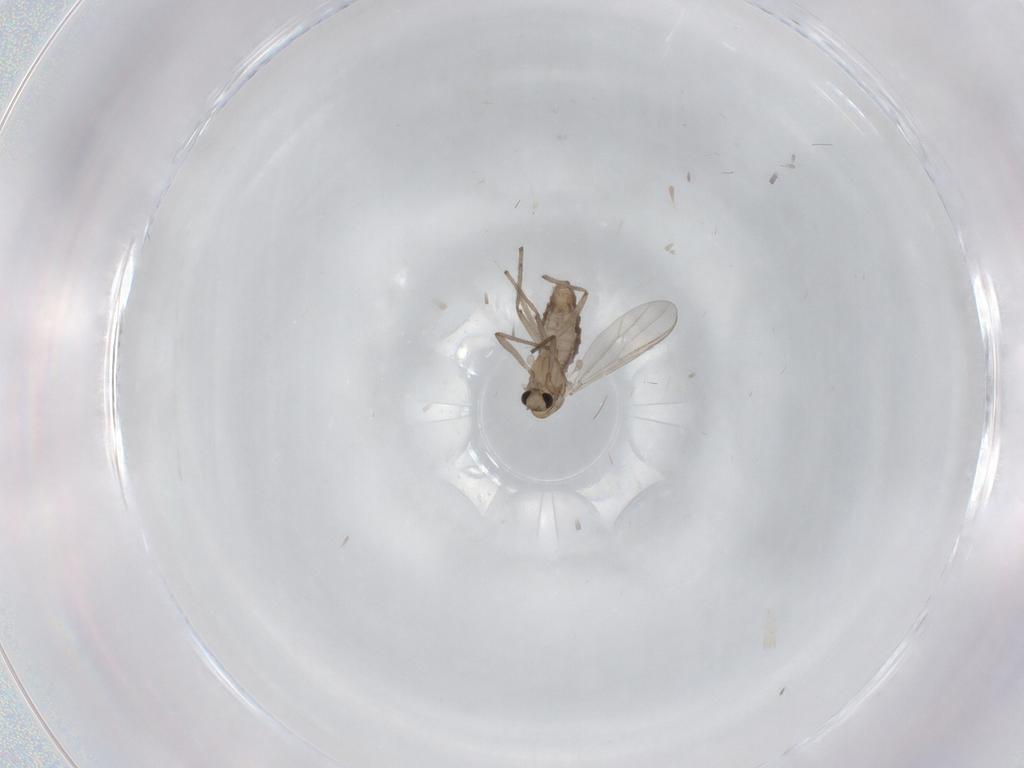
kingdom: Animalia
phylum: Arthropoda
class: Insecta
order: Diptera
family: Chironomidae
